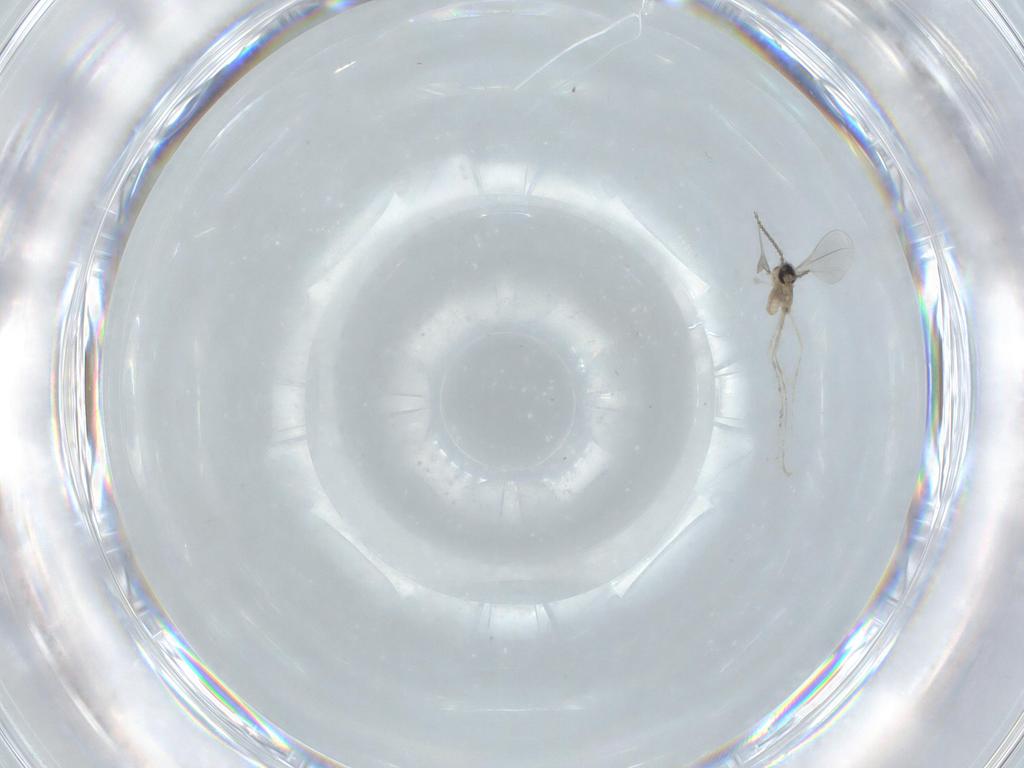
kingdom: Animalia
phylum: Arthropoda
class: Insecta
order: Diptera
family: Cecidomyiidae
